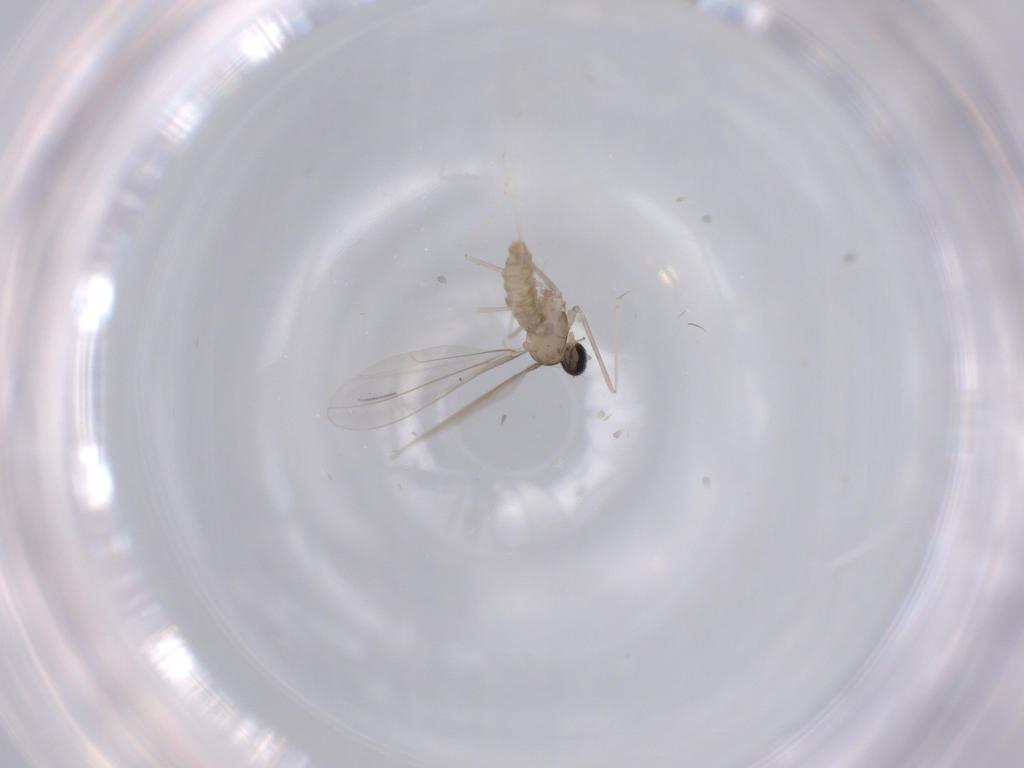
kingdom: Animalia
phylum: Arthropoda
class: Insecta
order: Diptera
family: Cecidomyiidae
